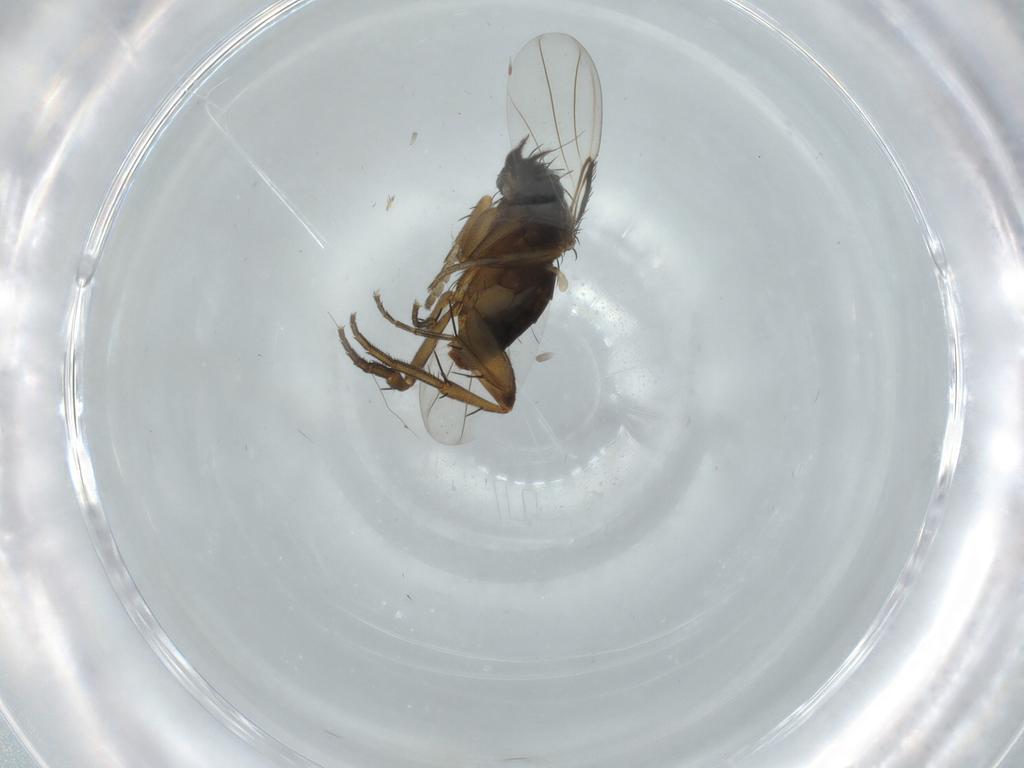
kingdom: Animalia
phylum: Arthropoda
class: Insecta
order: Diptera
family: Phoridae
